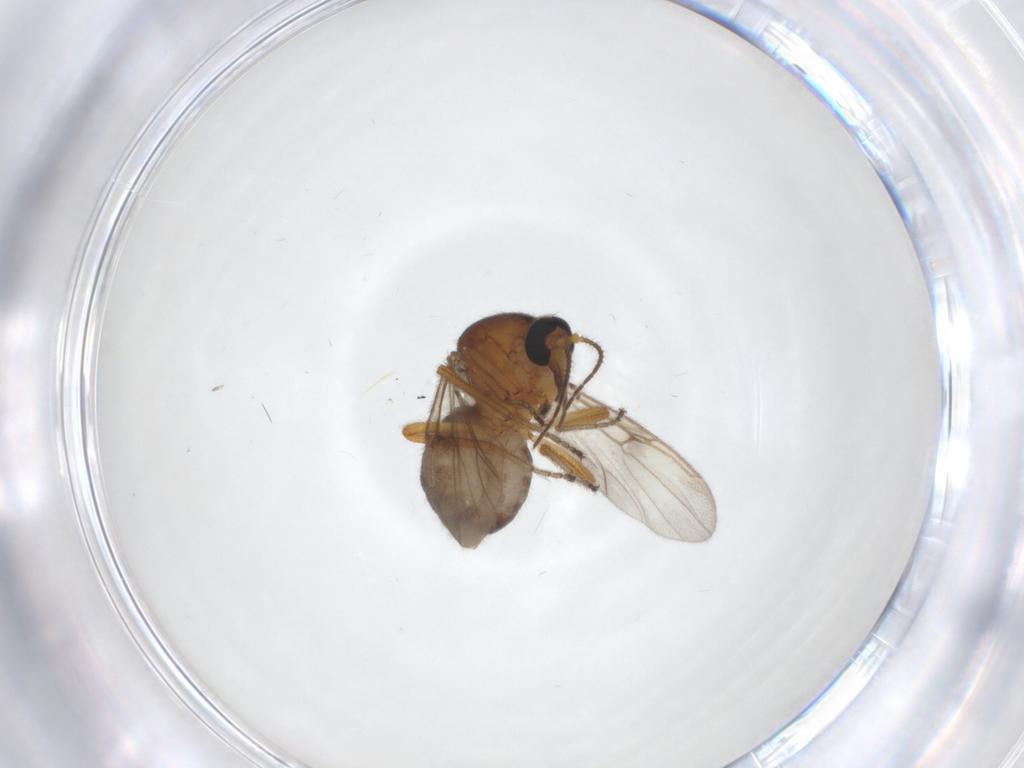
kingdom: Animalia
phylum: Arthropoda
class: Insecta
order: Diptera
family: Ceratopogonidae
